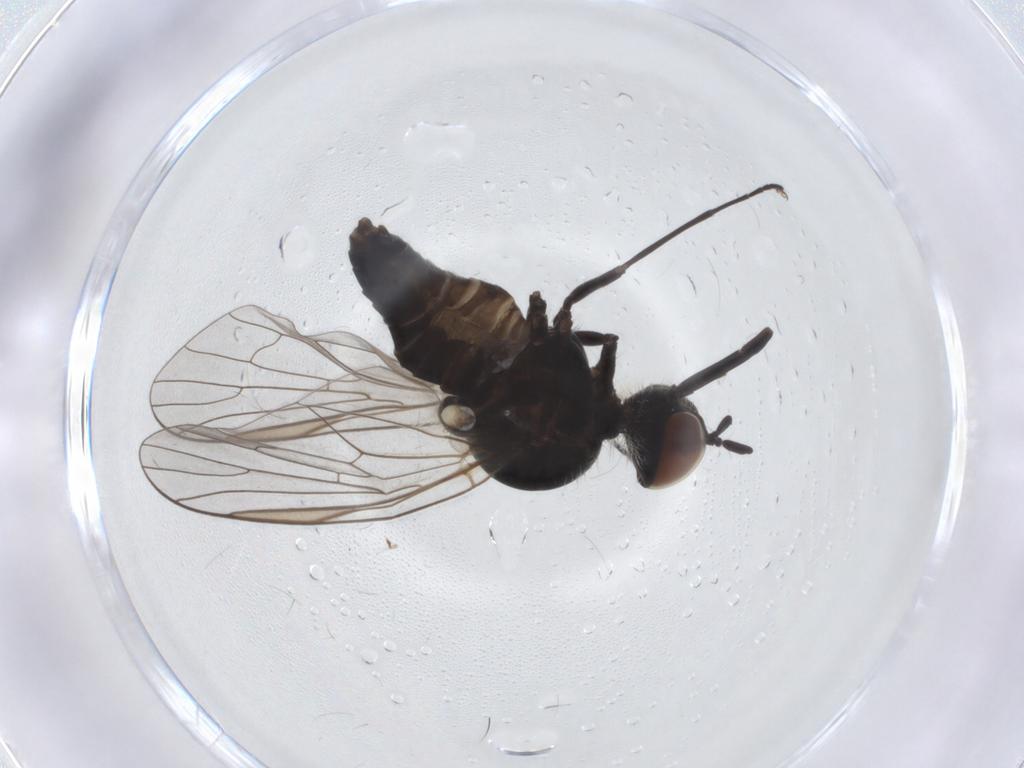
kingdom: Animalia
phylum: Arthropoda
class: Insecta
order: Diptera
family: Bombyliidae
